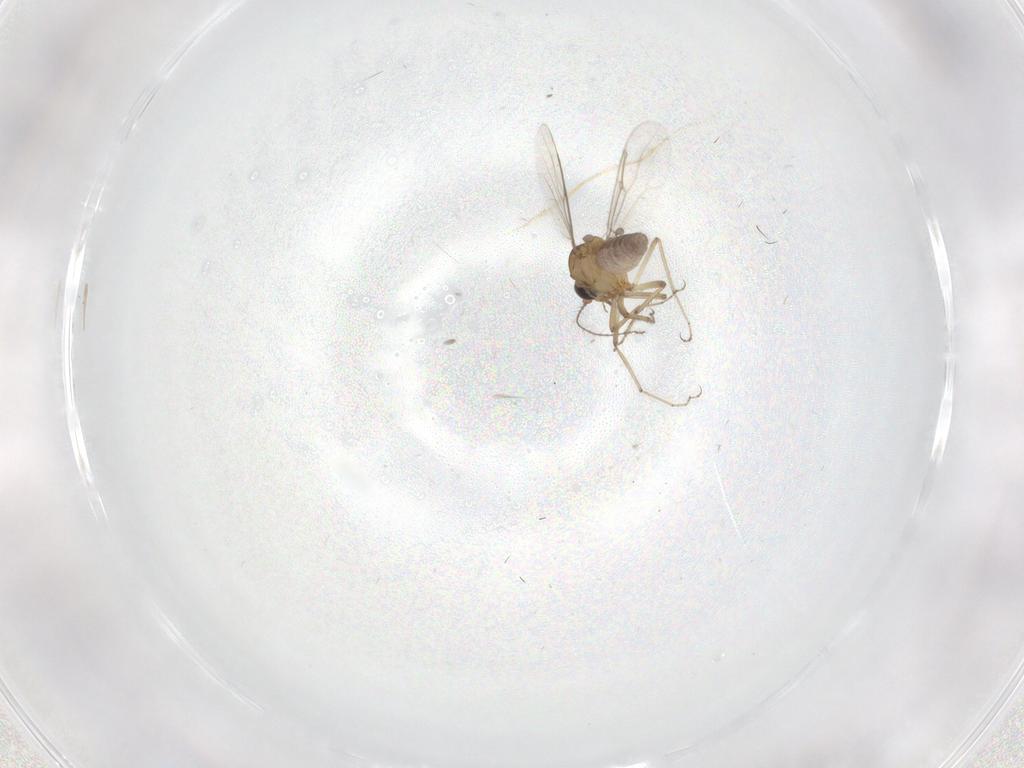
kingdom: Animalia
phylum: Arthropoda
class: Insecta
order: Diptera
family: Ceratopogonidae
